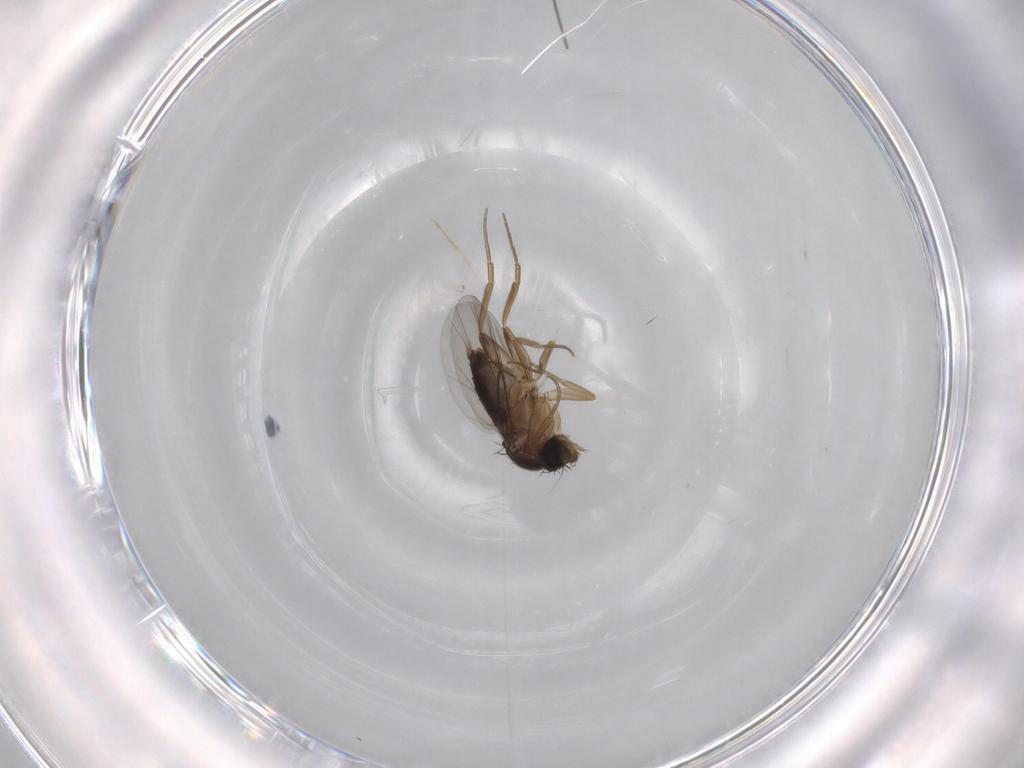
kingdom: Animalia
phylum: Arthropoda
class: Insecta
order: Diptera
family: Phoridae
